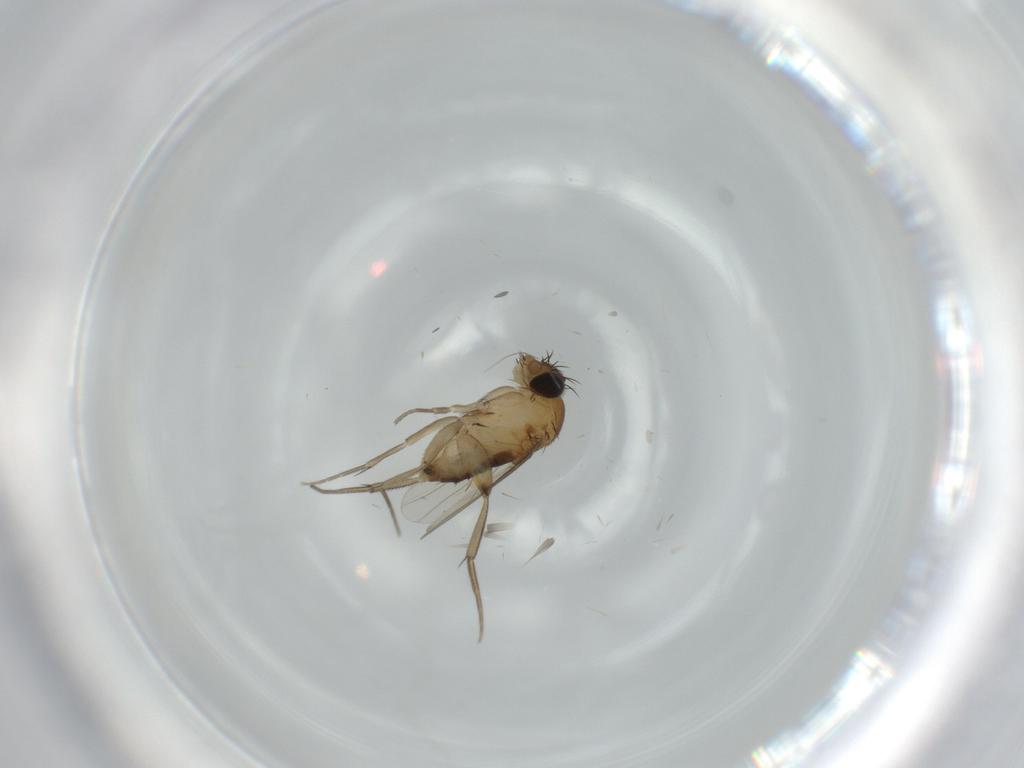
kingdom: Animalia
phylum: Arthropoda
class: Insecta
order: Diptera
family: Phoridae
